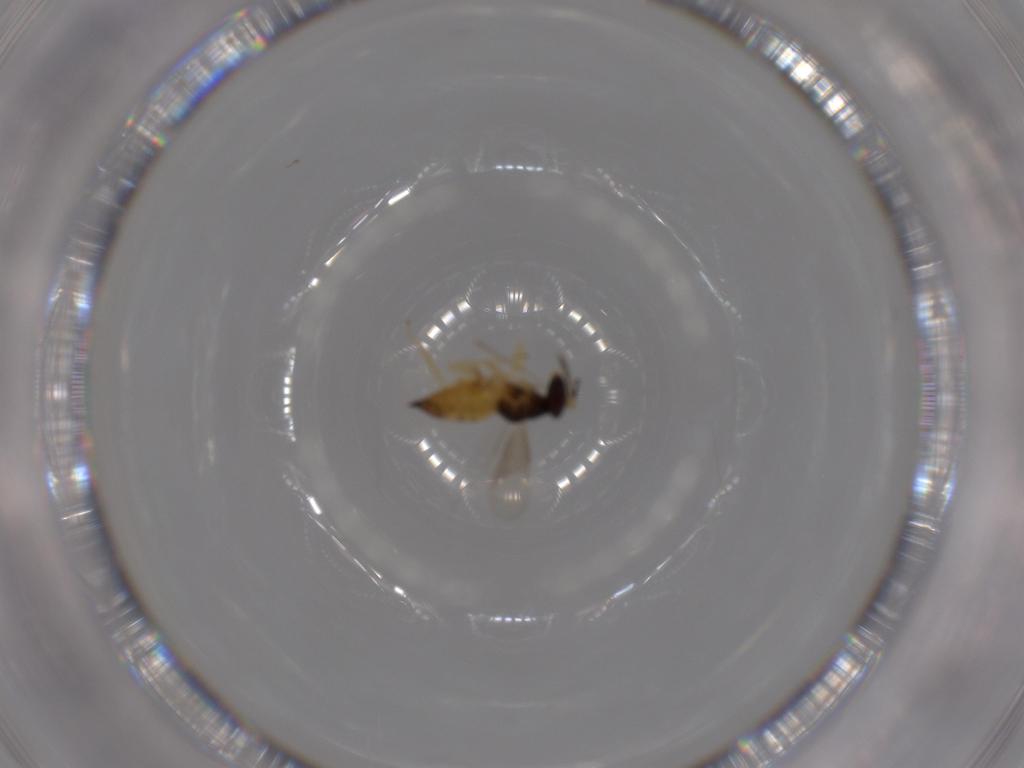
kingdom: Animalia
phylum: Arthropoda
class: Insecta
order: Hymenoptera
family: Eulophidae
